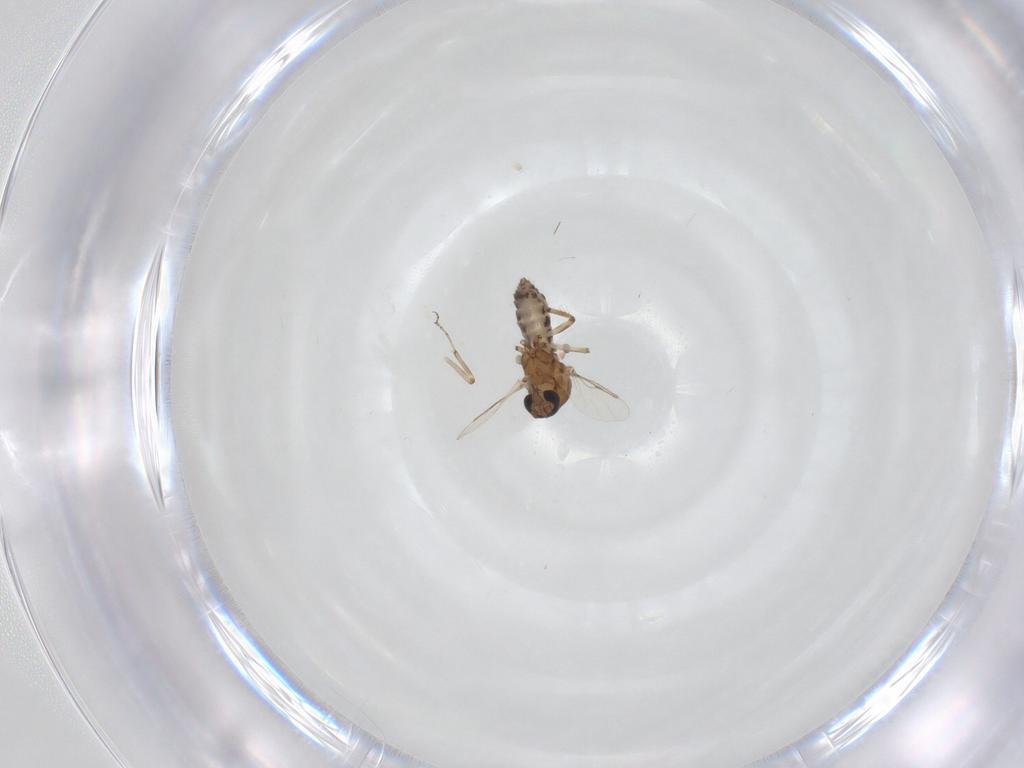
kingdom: Animalia
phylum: Arthropoda
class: Insecta
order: Diptera
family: Ceratopogonidae
